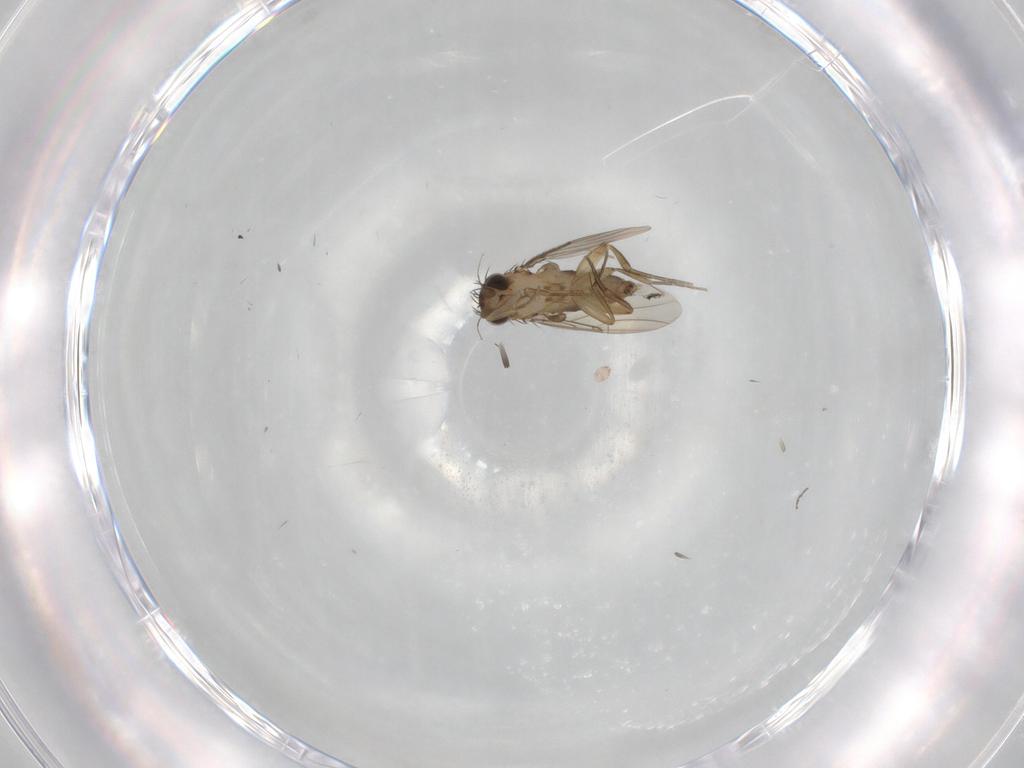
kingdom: Animalia
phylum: Arthropoda
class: Insecta
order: Diptera
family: Phoridae
